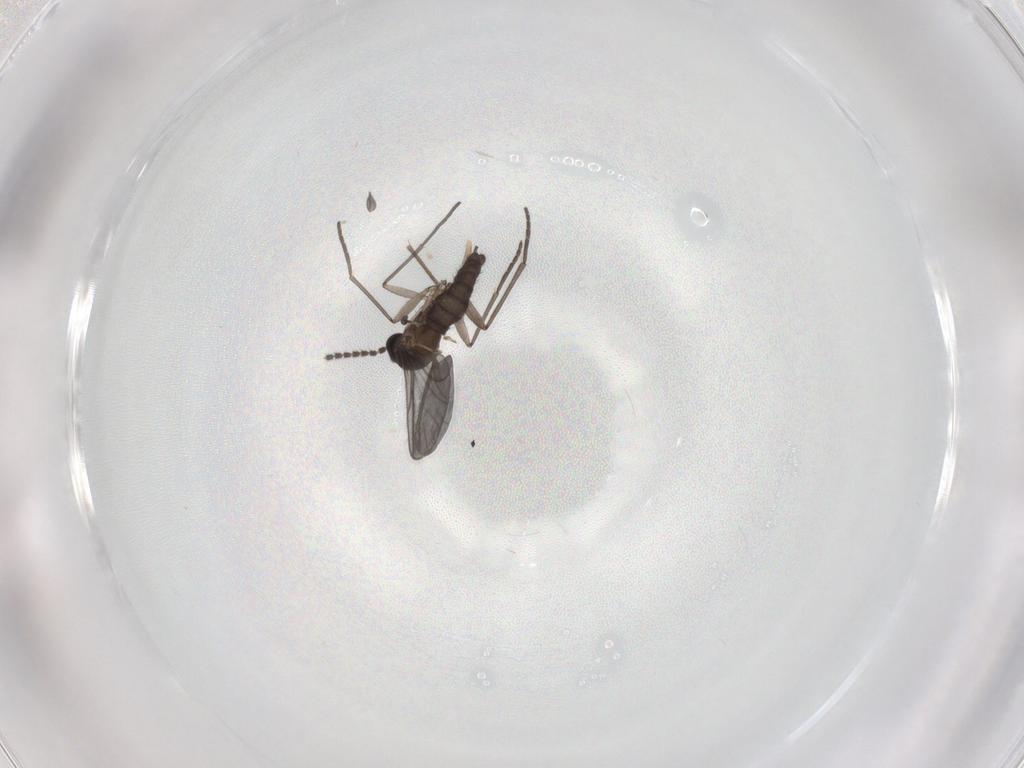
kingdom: Animalia
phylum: Arthropoda
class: Insecta
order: Diptera
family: Chironomidae
